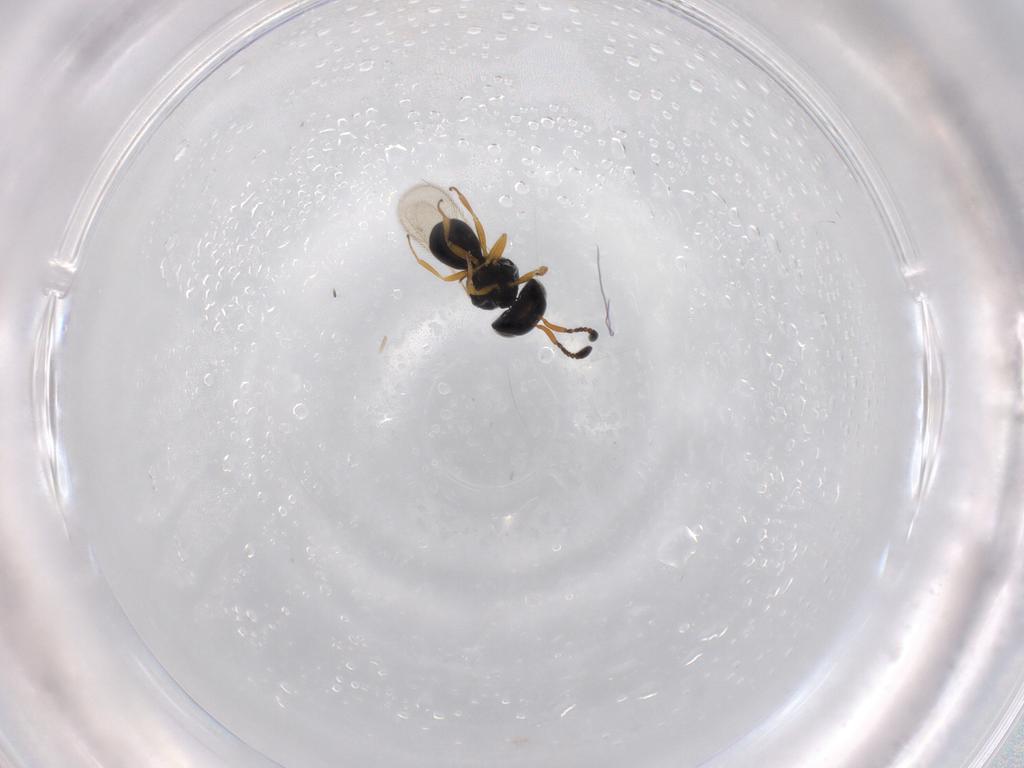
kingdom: Animalia
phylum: Arthropoda
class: Insecta
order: Hymenoptera
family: Scelionidae
